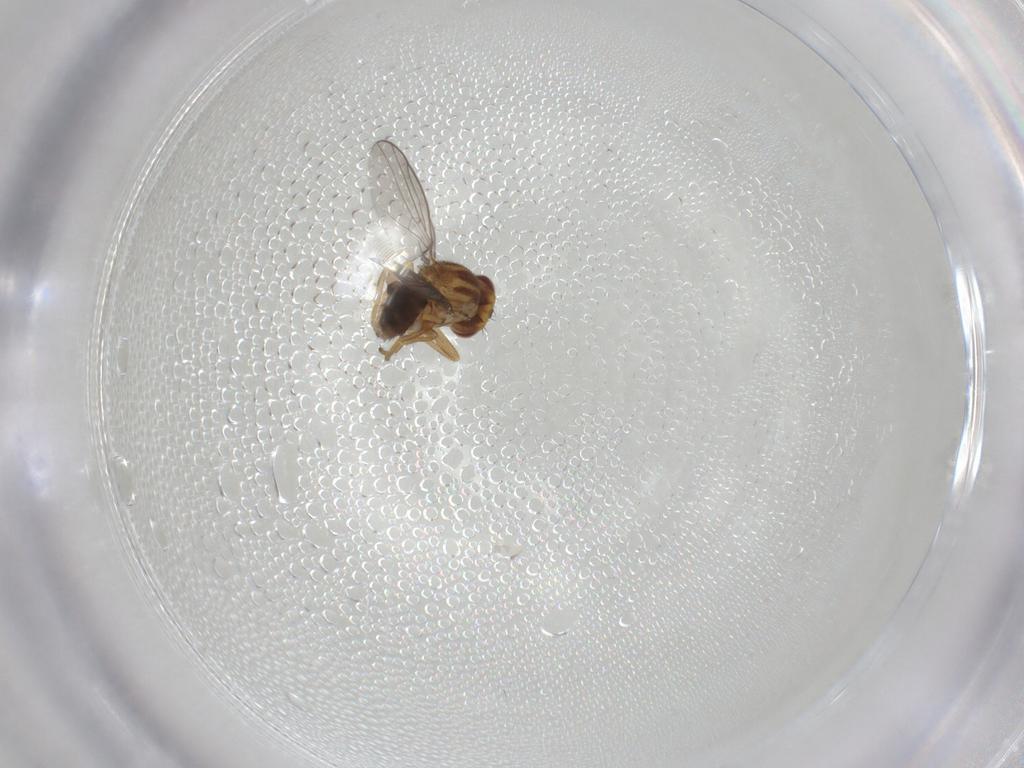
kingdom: Animalia
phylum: Arthropoda
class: Insecta
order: Diptera
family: Chloropidae
